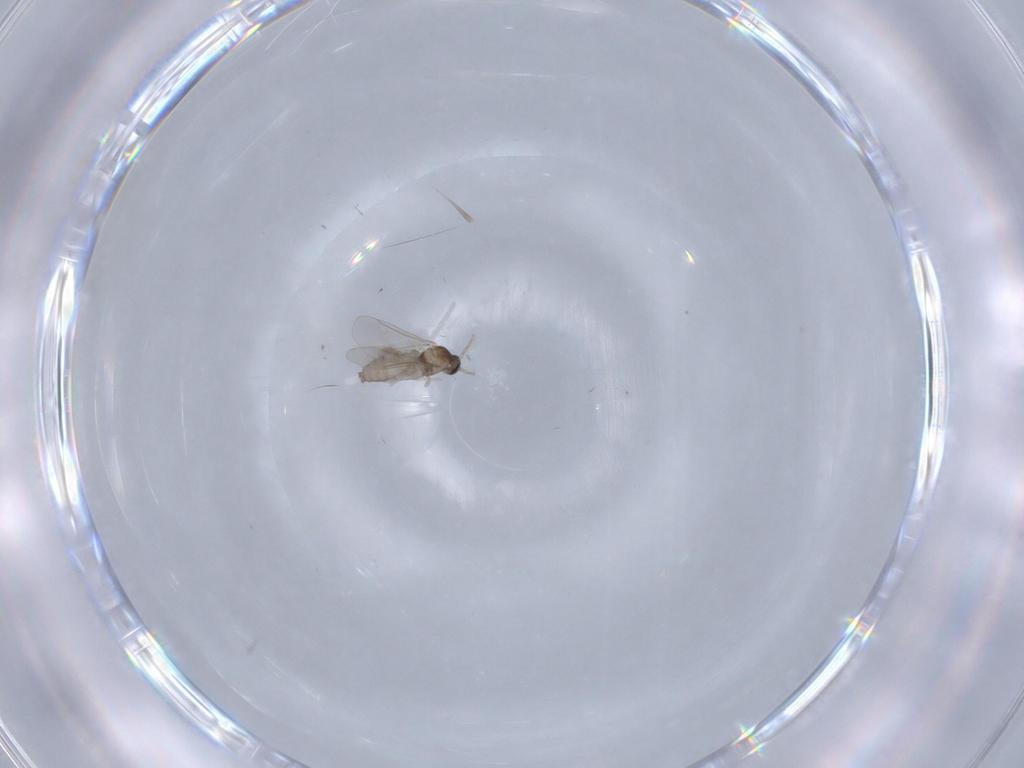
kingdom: Animalia
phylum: Arthropoda
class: Insecta
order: Diptera
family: Cecidomyiidae
